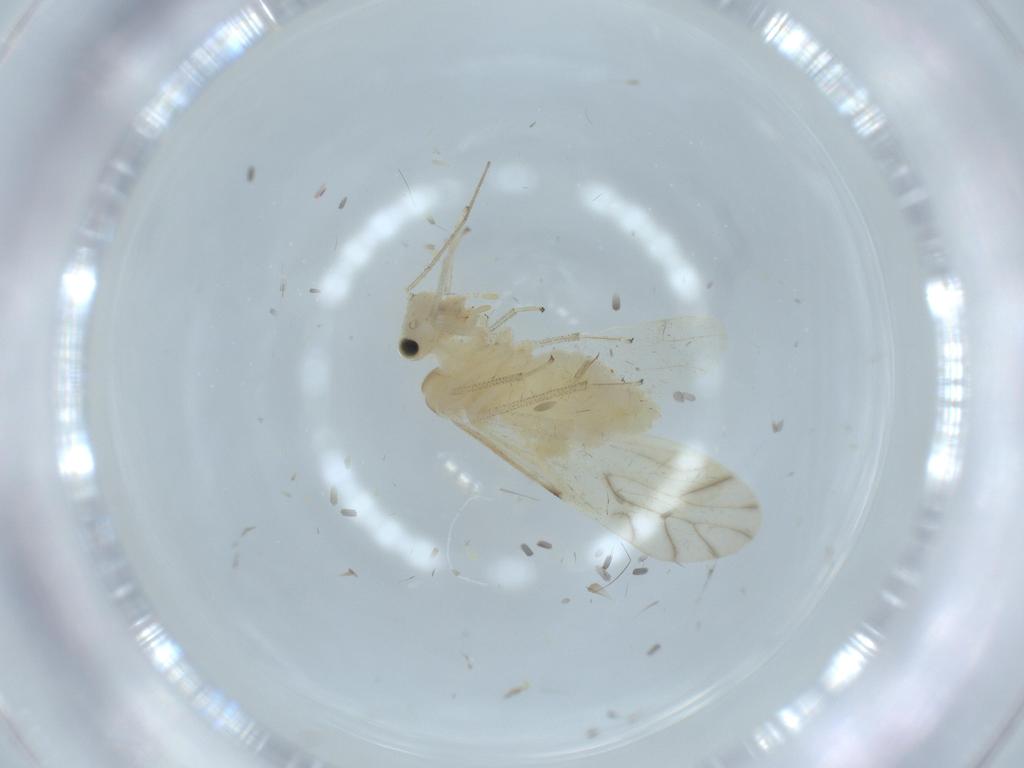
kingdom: Animalia
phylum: Arthropoda
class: Insecta
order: Psocodea
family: Caeciliusidae
